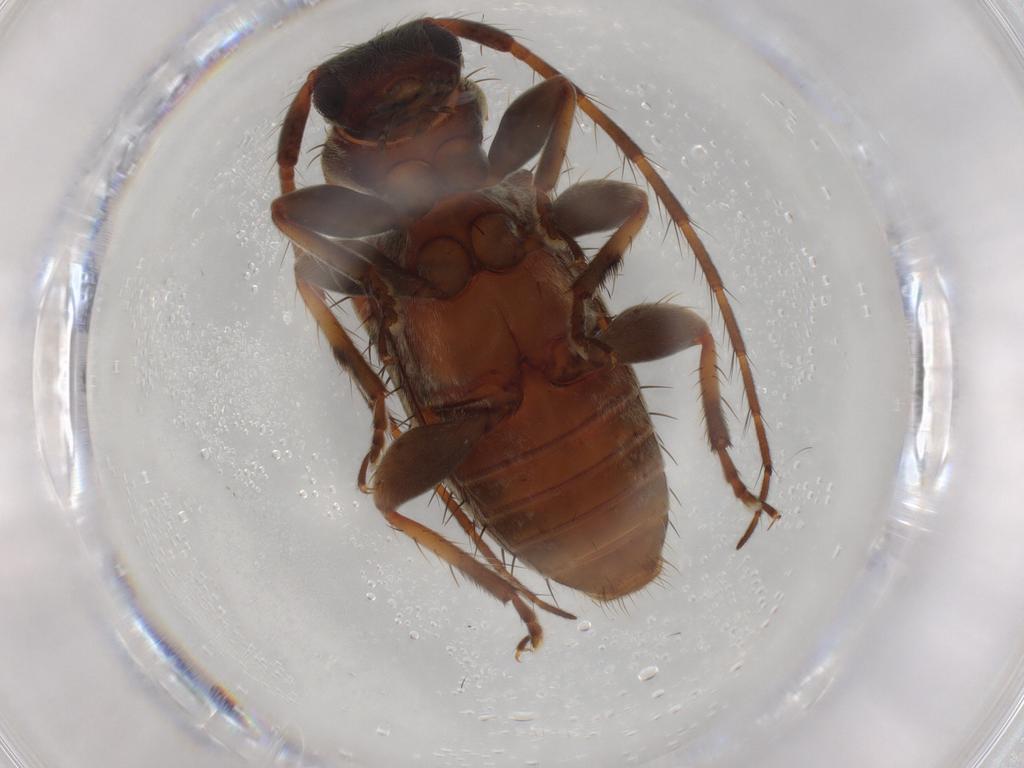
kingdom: Animalia
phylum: Arthropoda
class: Insecta
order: Coleoptera
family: Cerambycidae
